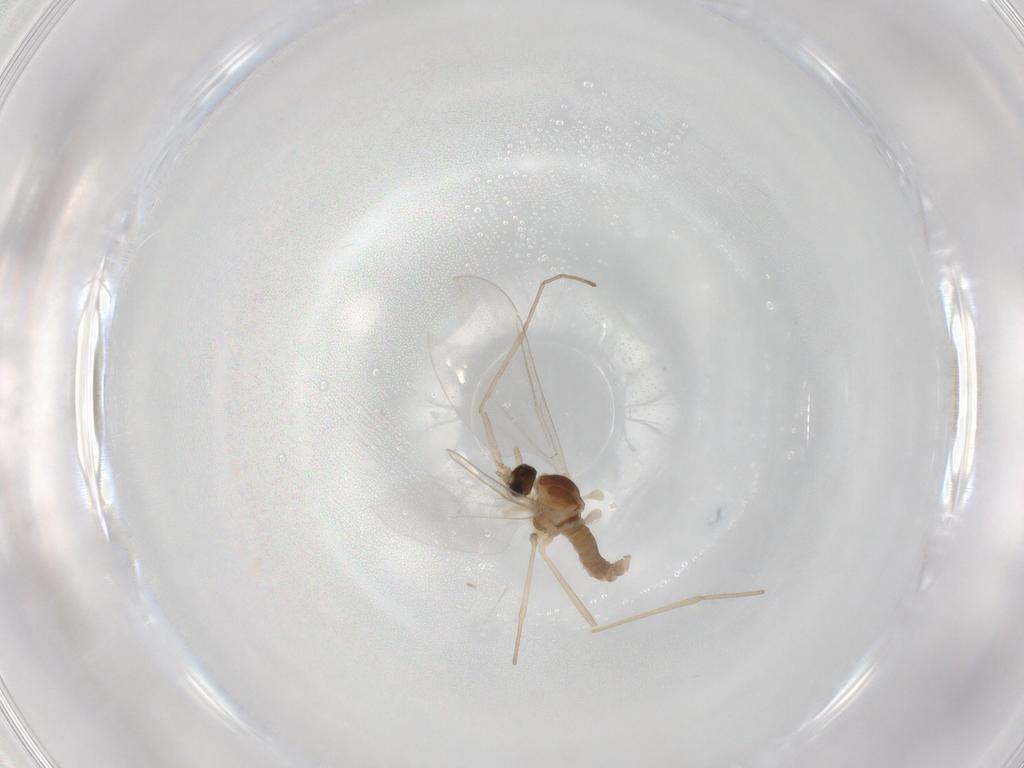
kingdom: Animalia
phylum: Arthropoda
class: Insecta
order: Diptera
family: Cecidomyiidae
